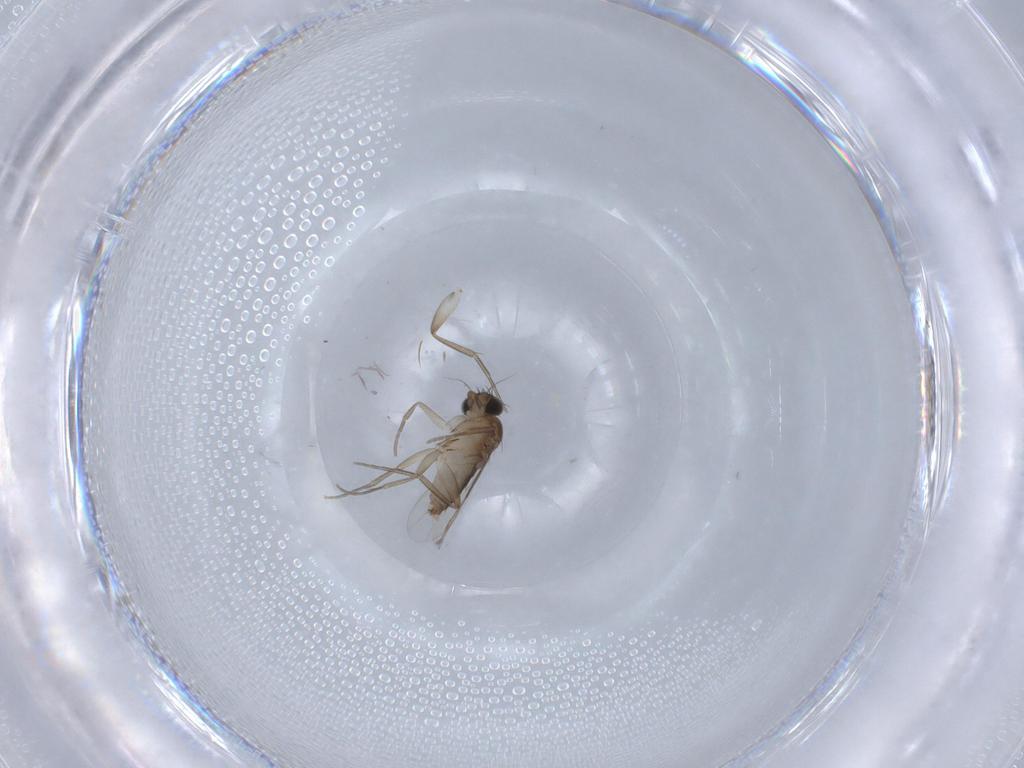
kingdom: Animalia
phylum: Arthropoda
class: Insecta
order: Diptera
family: Phoridae
